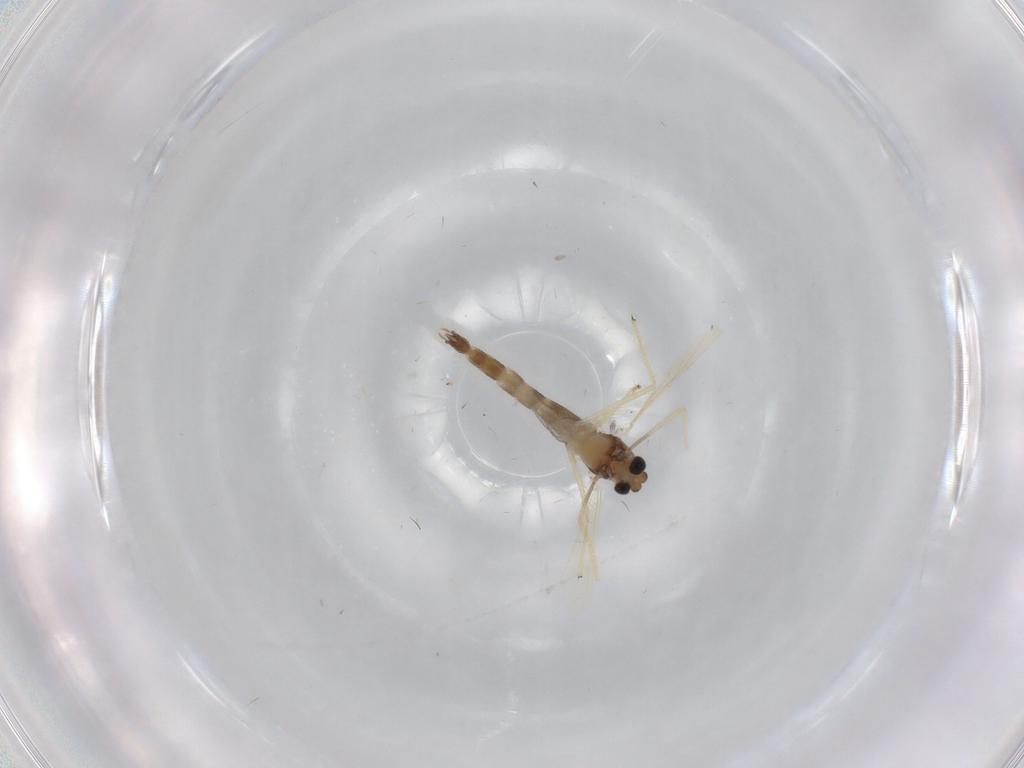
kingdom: Animalia
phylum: Arthropoda
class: Insecta
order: Diptera
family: Chironomidae
